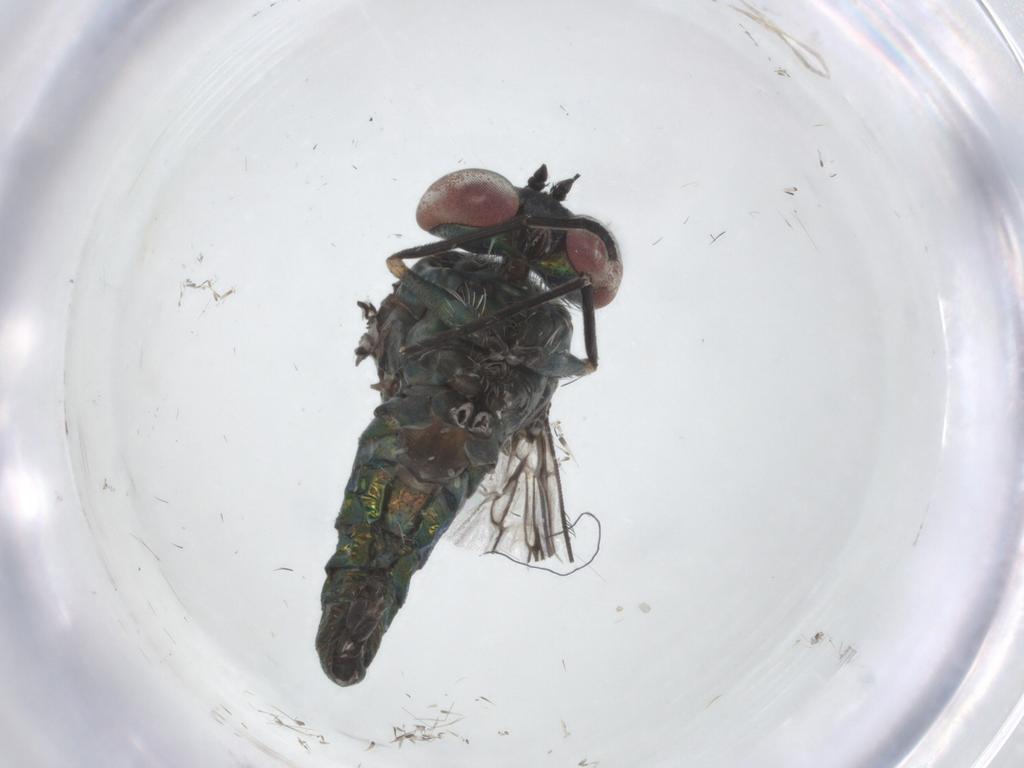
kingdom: Animalia
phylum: Arthropoda
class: Insecta
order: Diptera
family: Dolichopodidae
